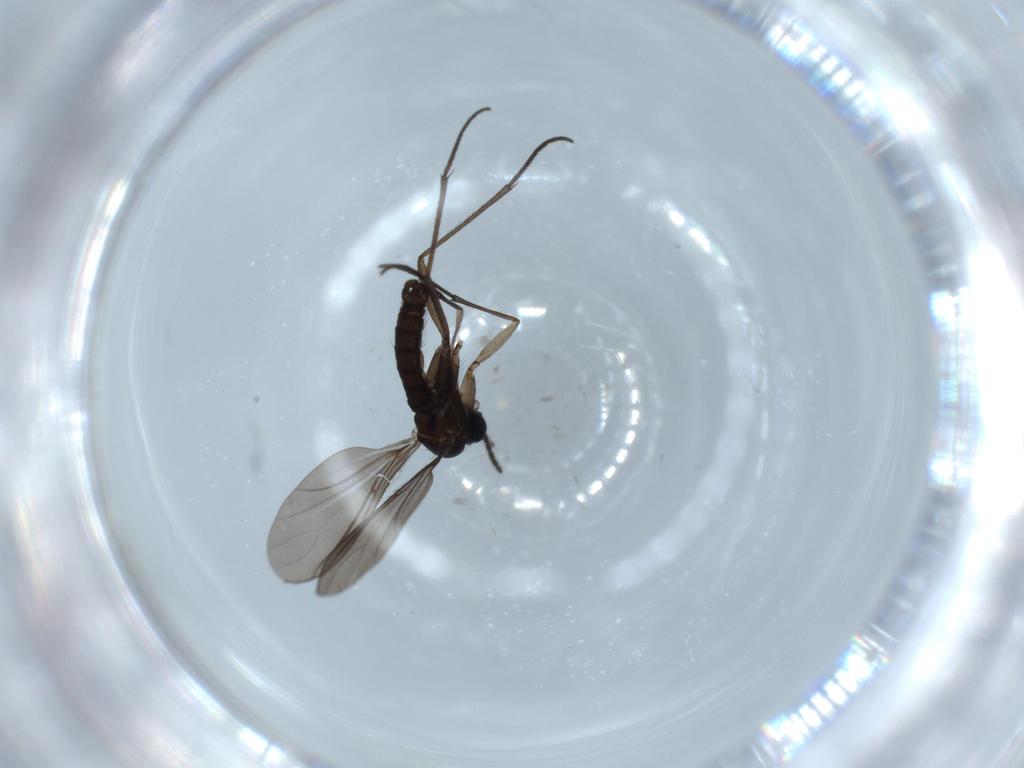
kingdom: Animalia
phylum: Arthropoda
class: Insecta
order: Diptera
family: Sciaridae
